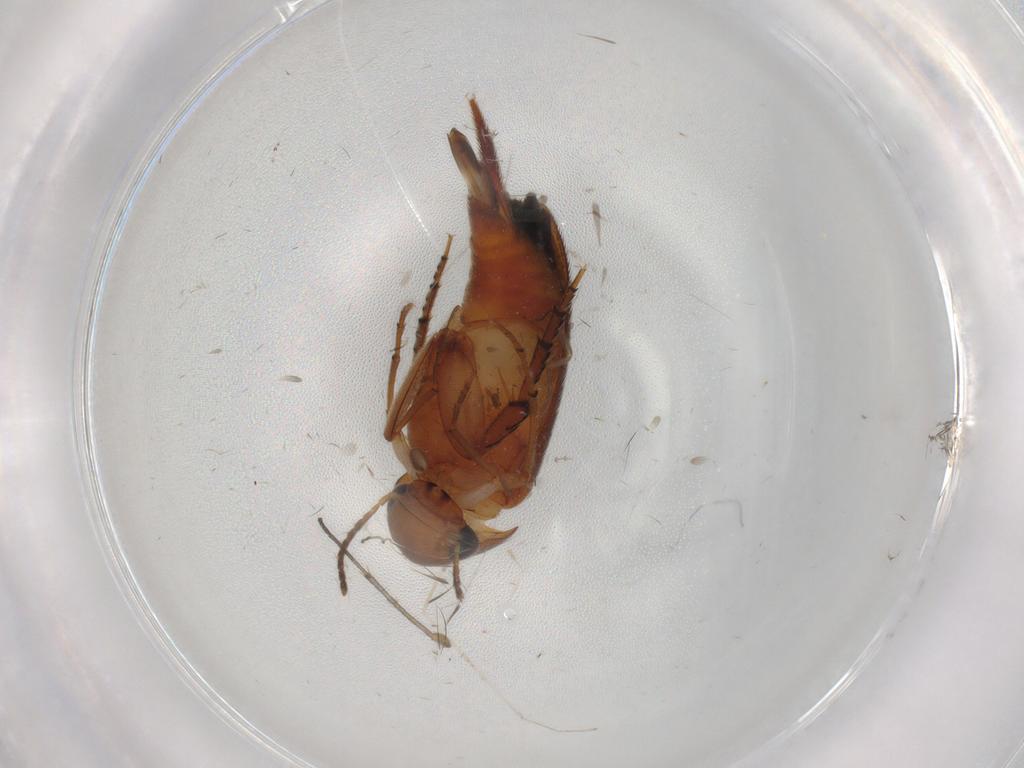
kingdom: Animalia
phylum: Arthropoda
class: Insecta
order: Coleoptera
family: Mordellidae
